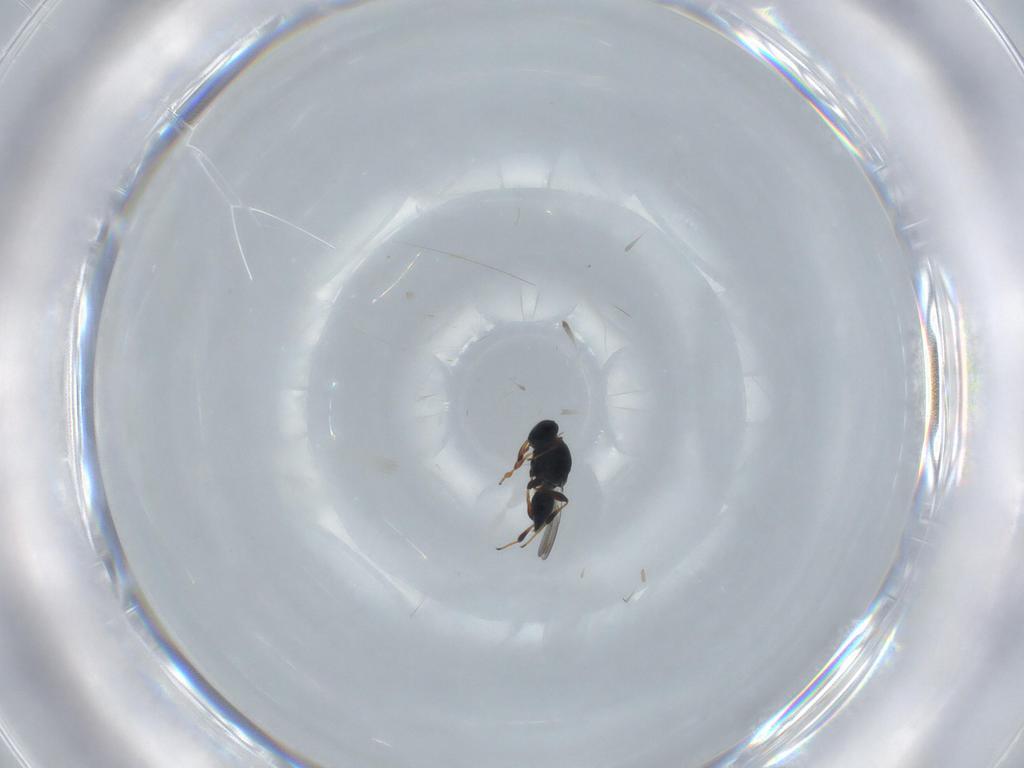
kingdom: Animalia
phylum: Arthropoda
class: Insecta
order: Hymenoptera
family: Platygastridae
